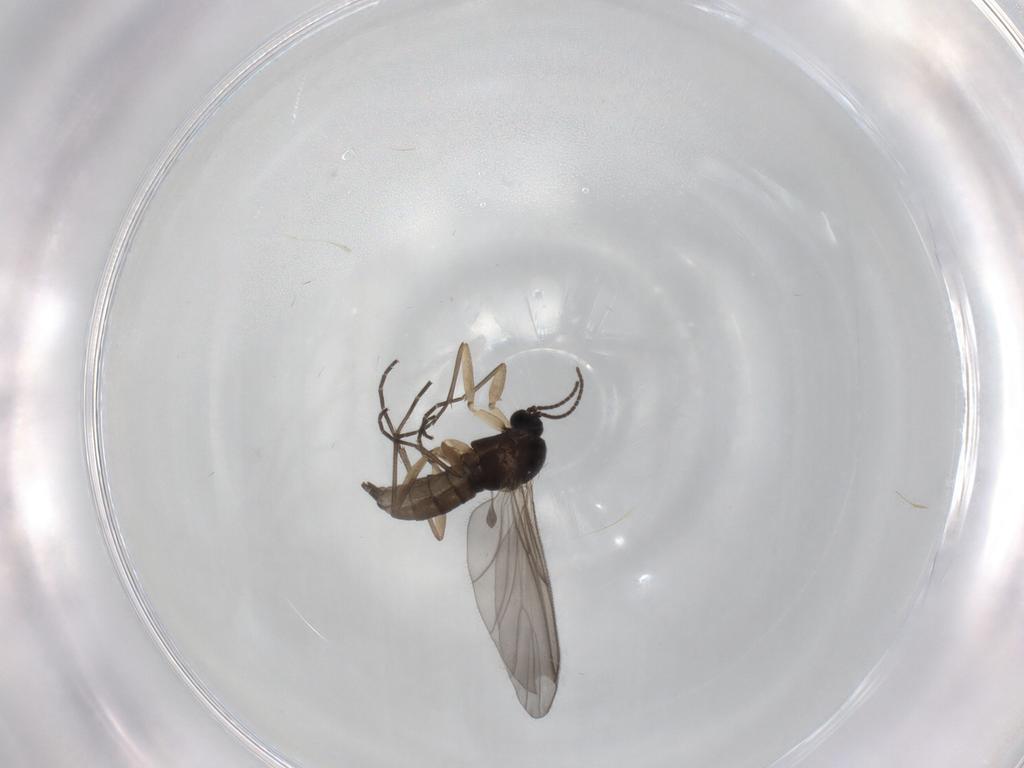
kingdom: Animalia
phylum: Arthropoda
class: Insecta
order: Diptera
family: Sciaridae
